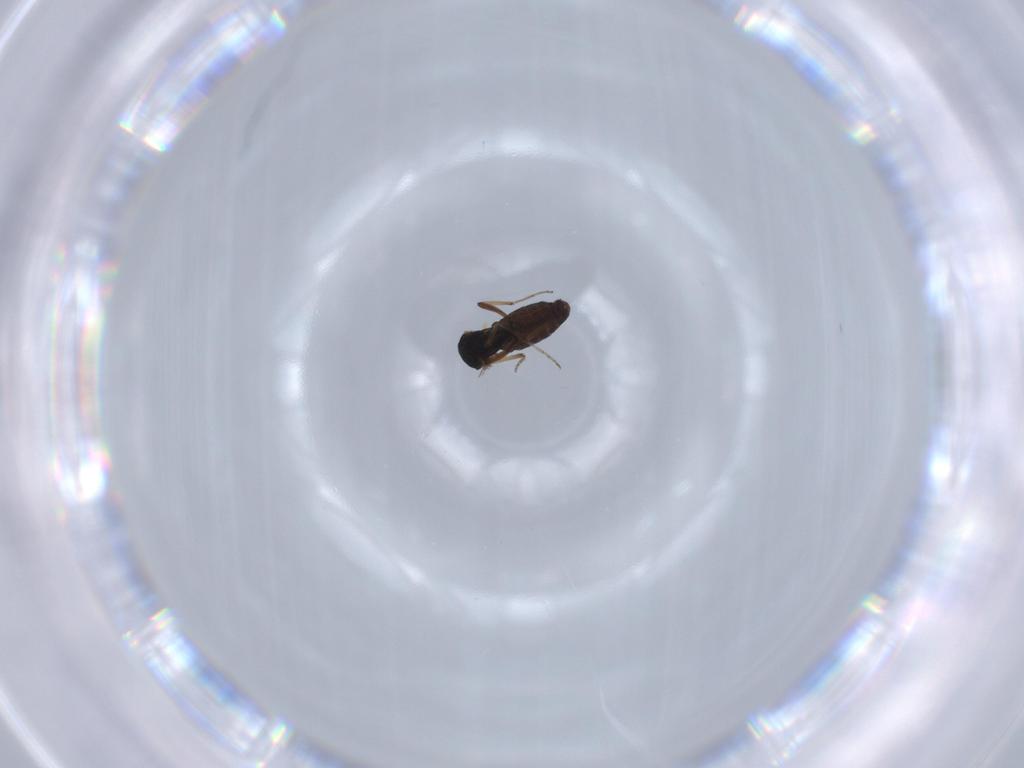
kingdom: Animalia
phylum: Arthropoda
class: Insecta
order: Diptera
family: Ceratopogonidae
